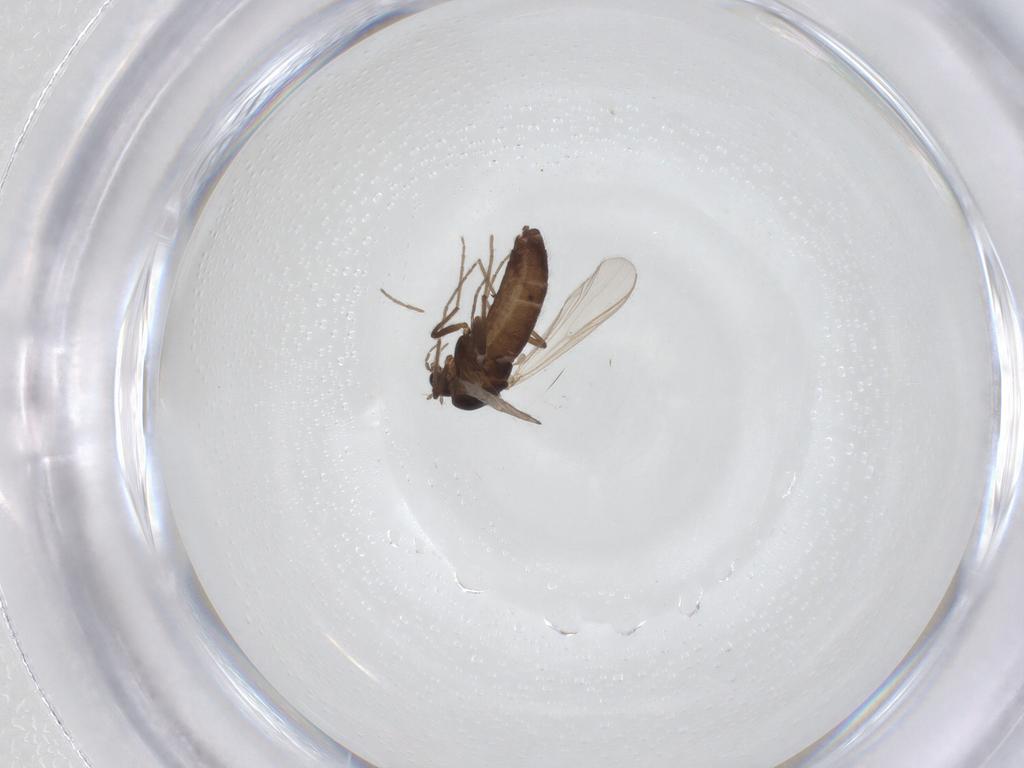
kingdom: Animalia
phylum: Arthropoda
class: Insecta
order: Diptera
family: Chironomidae
